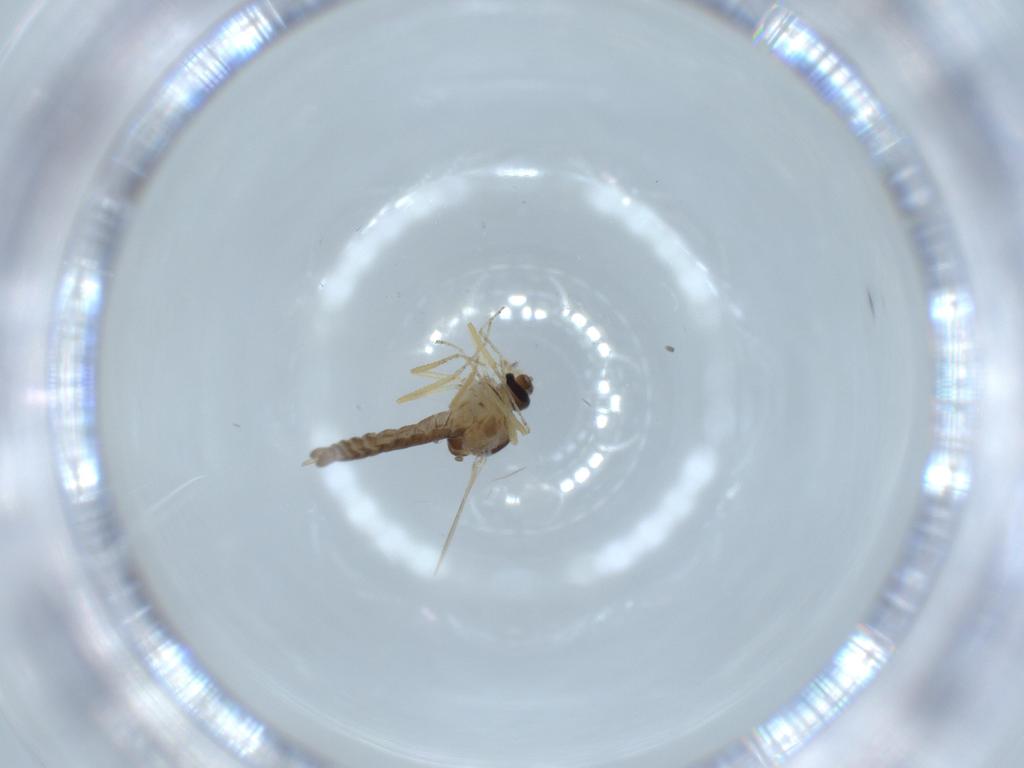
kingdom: Animalia
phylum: Arthropoda
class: Insecta
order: Diptera
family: Ceratopogonidae
